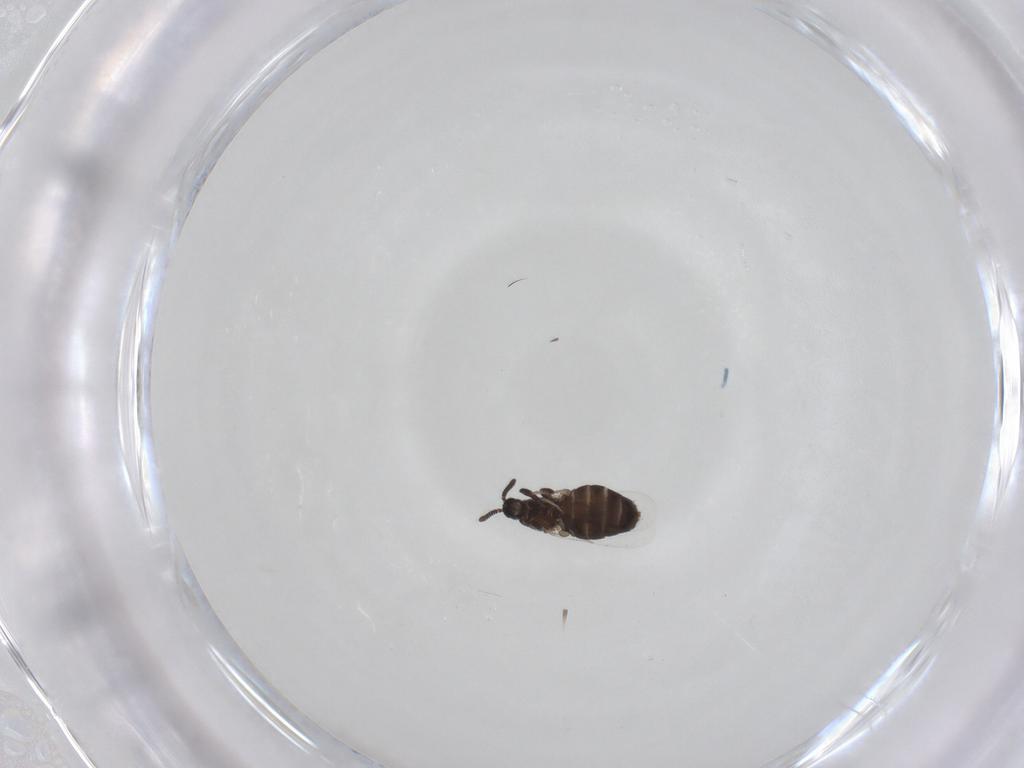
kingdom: Animalia
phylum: Arthropoda
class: Insecta
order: Diptera
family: Scatopsidae
